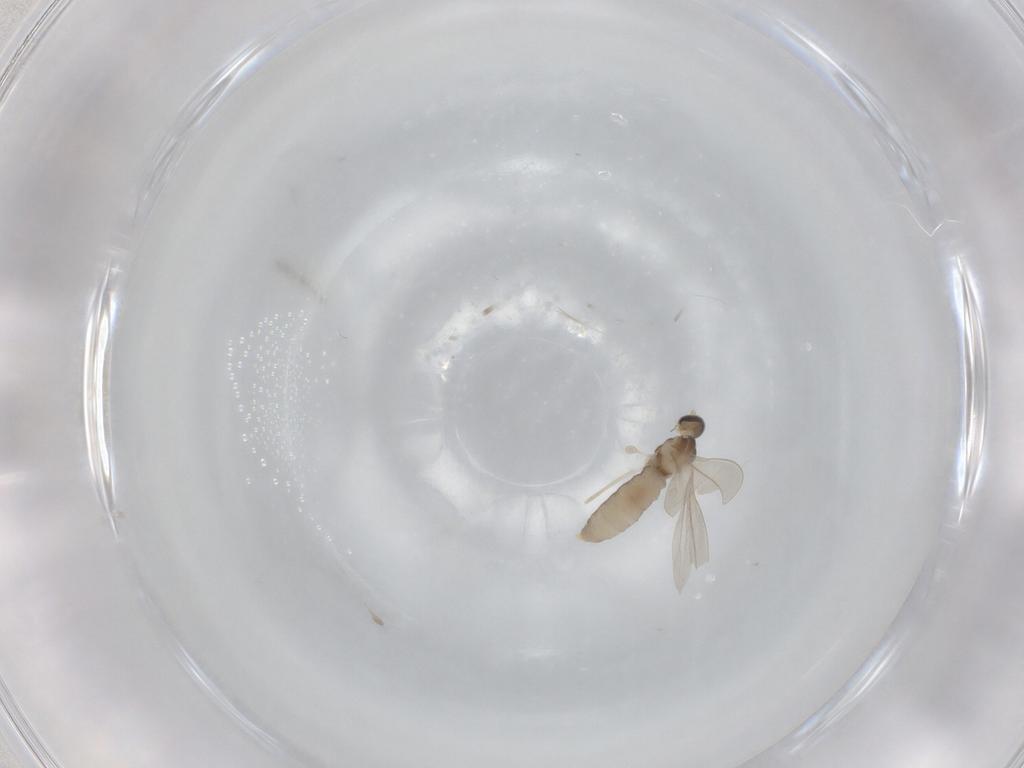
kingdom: Animalia
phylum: Arthropoda
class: Insecta
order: Diptera
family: Cecidomyiidae
